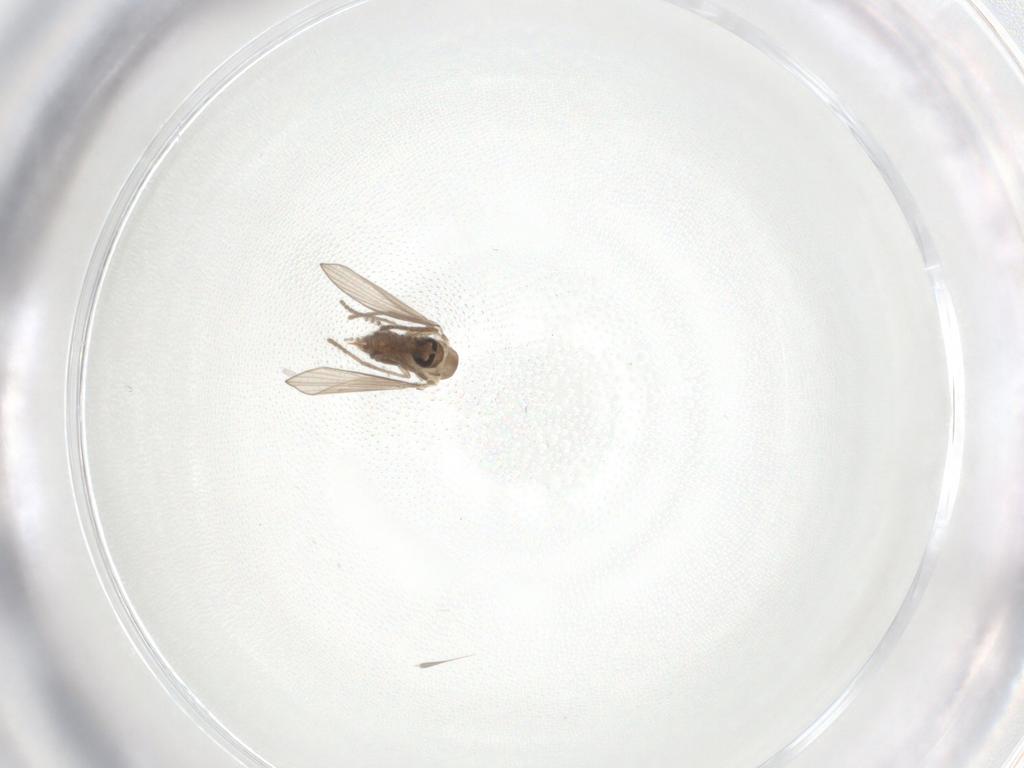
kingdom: Animalia
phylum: Arthropoda
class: Insecta
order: Diptera
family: Psychodidae
